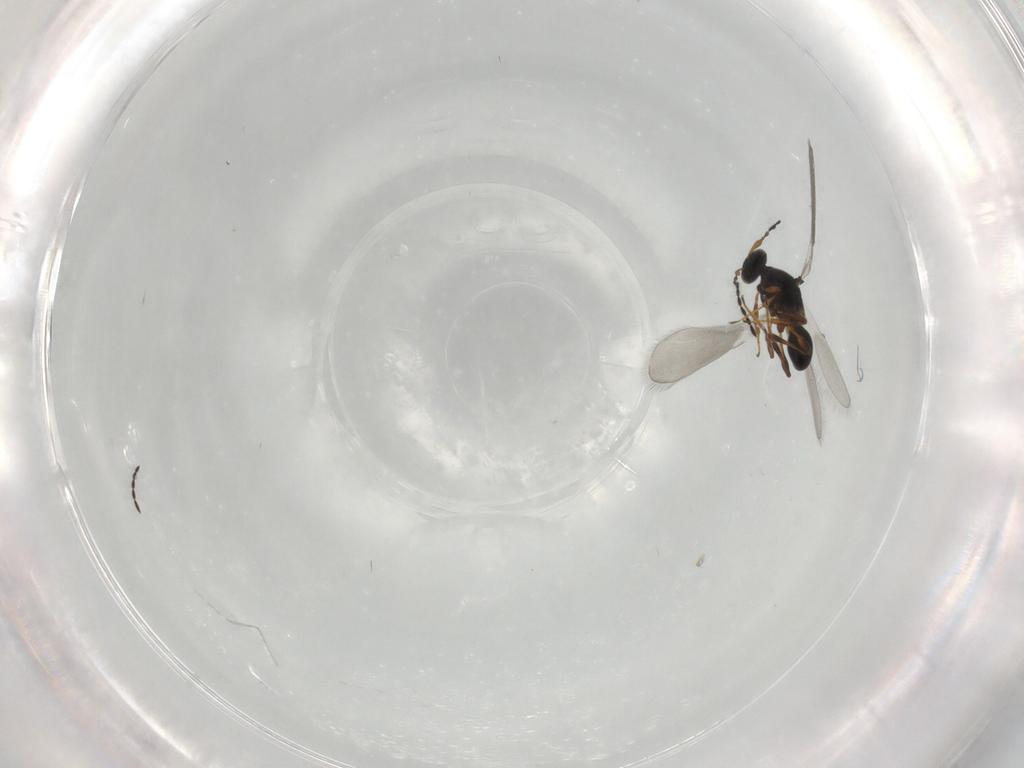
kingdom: Animalia
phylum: Arthropoda
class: Insecta
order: Hymenoptera
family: Platygastridae
